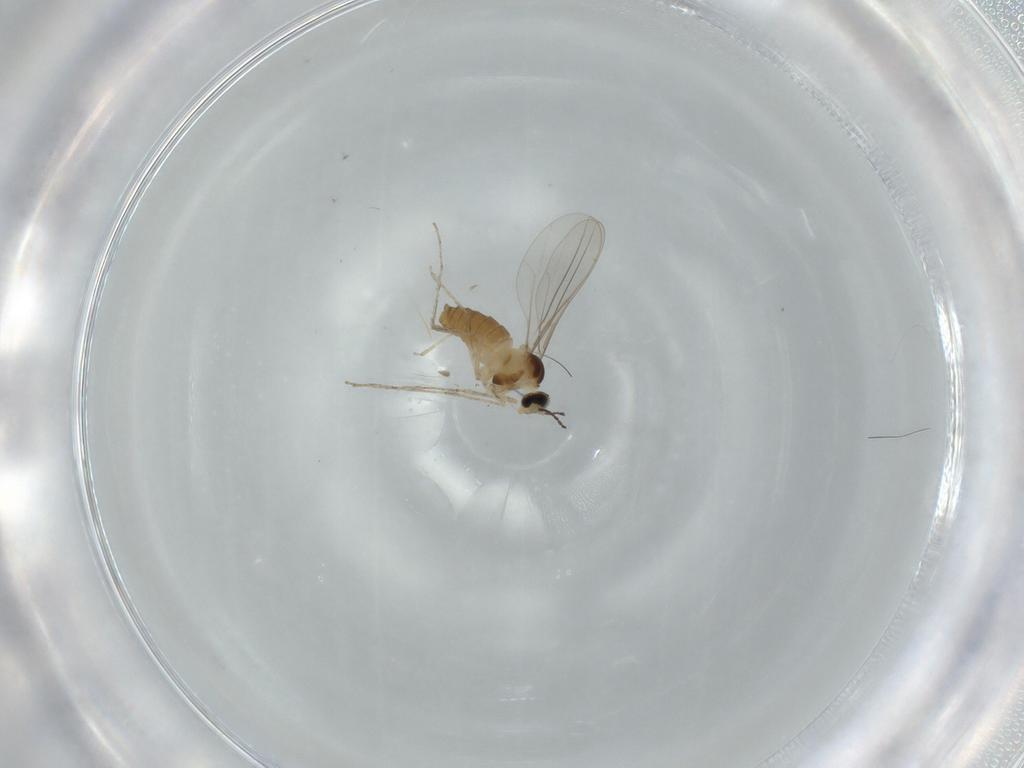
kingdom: Animalia
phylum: Arthropoda
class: Insecta
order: Diptera
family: Cecidomyiidae
